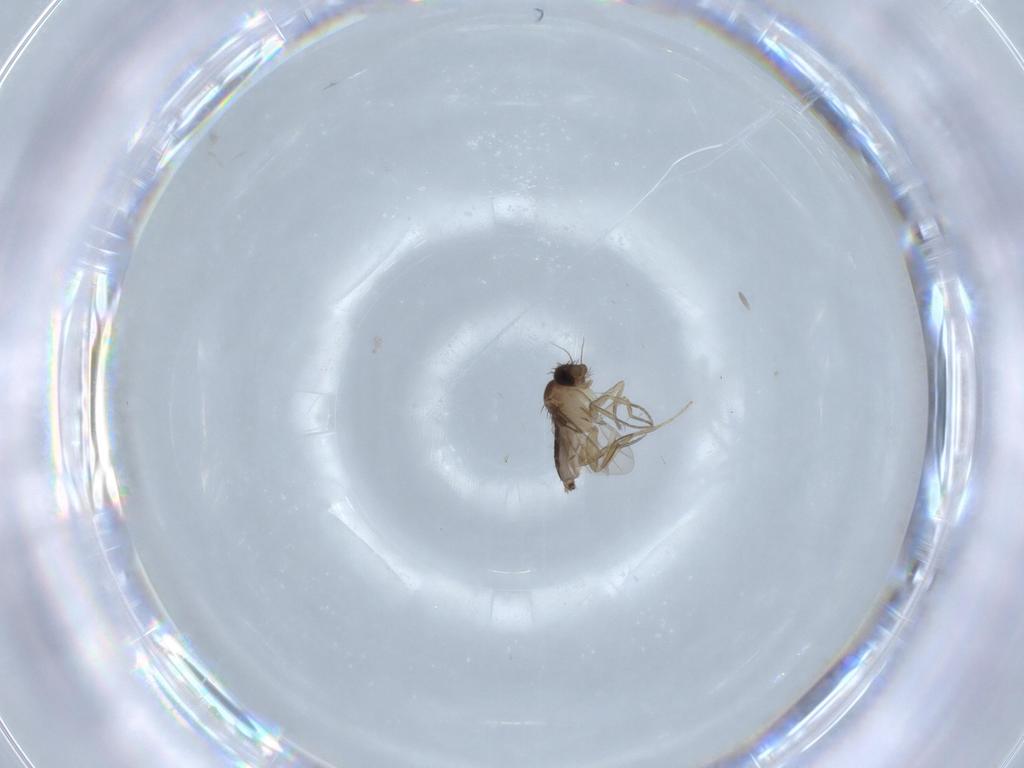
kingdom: Animalia
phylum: Arthropoda
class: Insecta
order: Diptera
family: Phoridae
